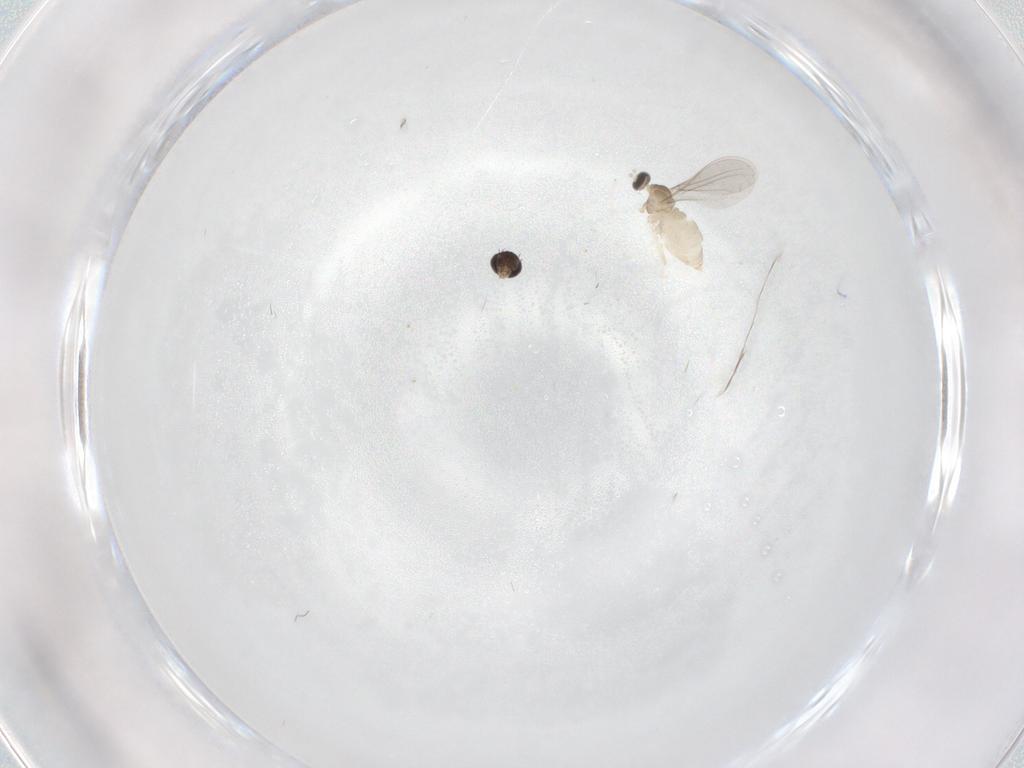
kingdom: Animalia
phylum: Arthropoda
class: Insecta
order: Diptera
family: Cecidomyiidae
